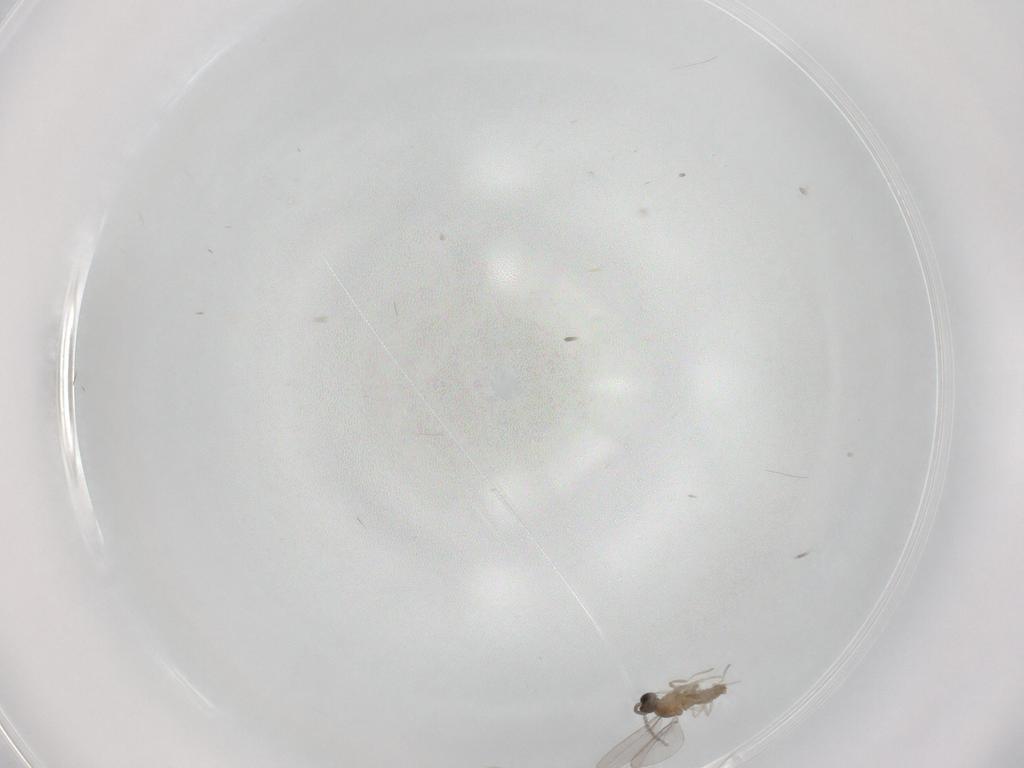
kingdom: Animalia
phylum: Arthropoda
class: Insecta
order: Diptera
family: Cecidomyiidae
